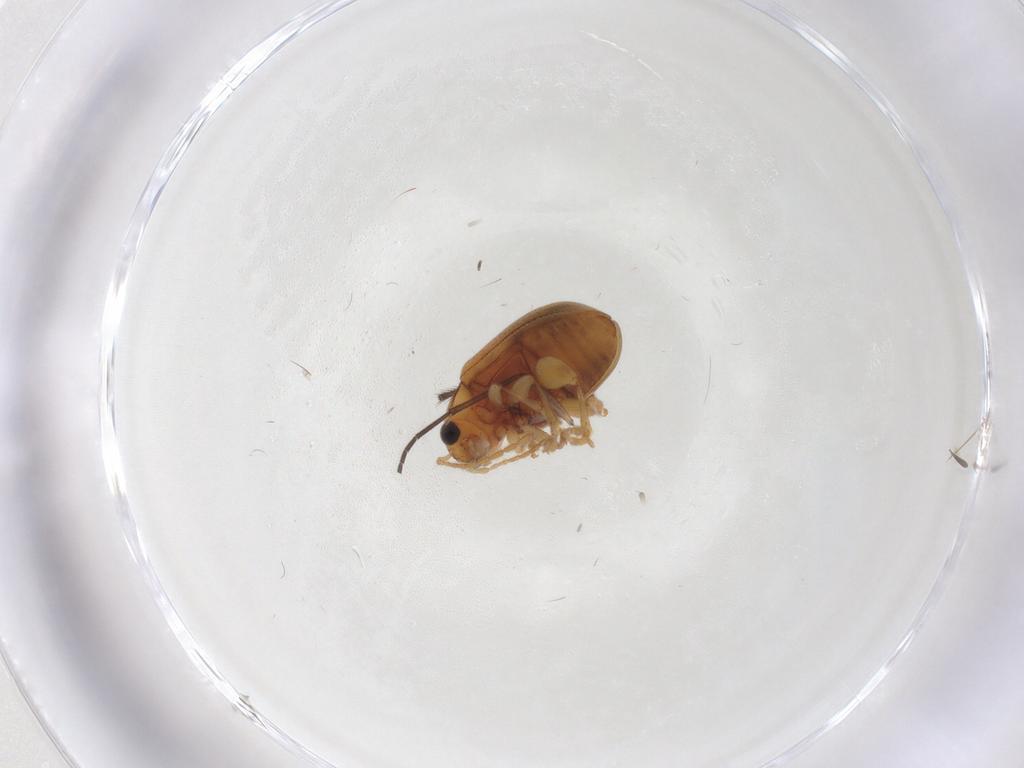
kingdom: Animalia
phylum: Arthropoda
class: Insecta
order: Coleoptera
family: Chrysomelidae
